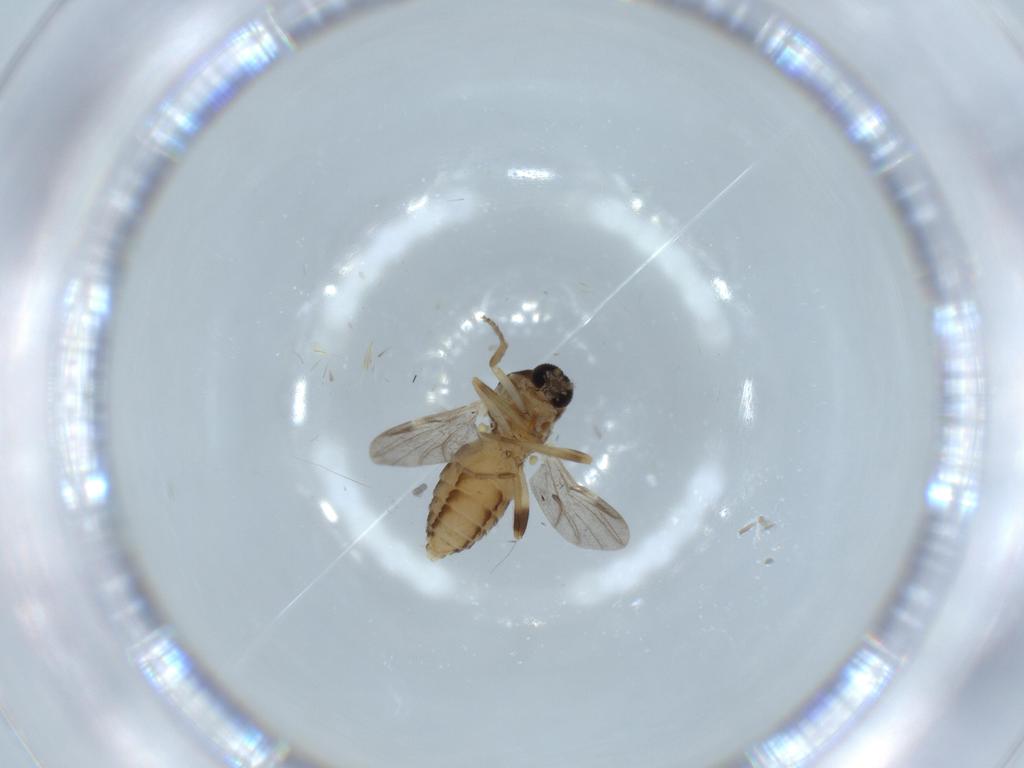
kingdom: Animalia
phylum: Arthropoda
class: Insecta
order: Diptera
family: Ceratopogonidae
